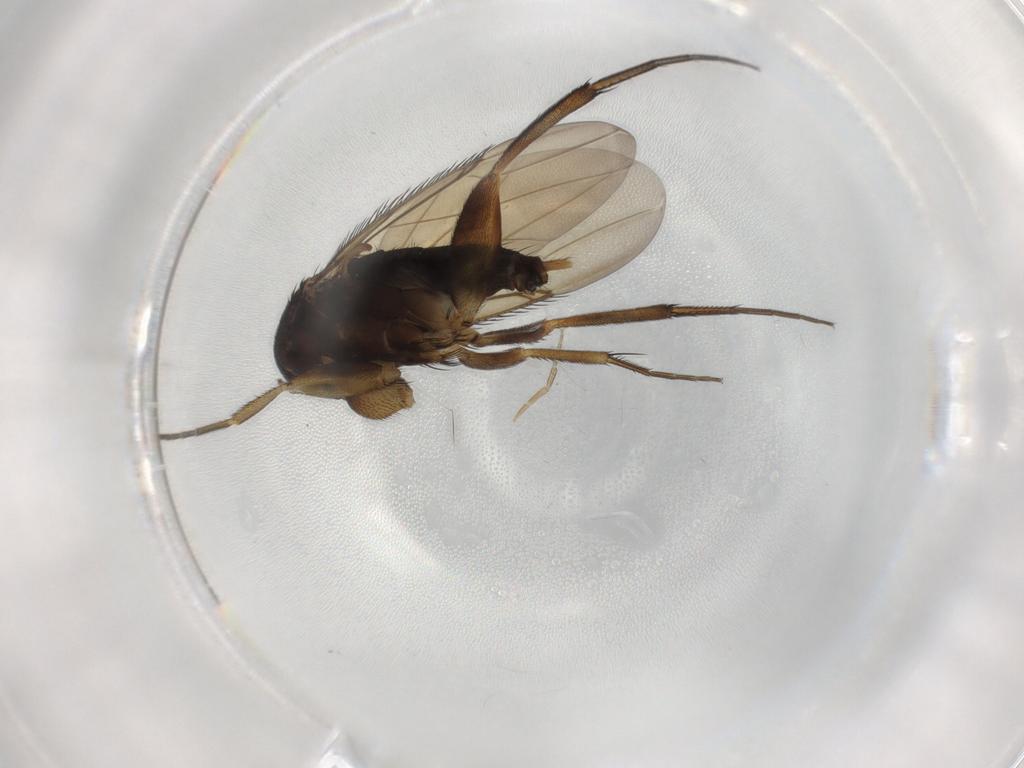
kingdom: Animalia
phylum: Arthropoda
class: Insecta
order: Diptera
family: Phoridae
